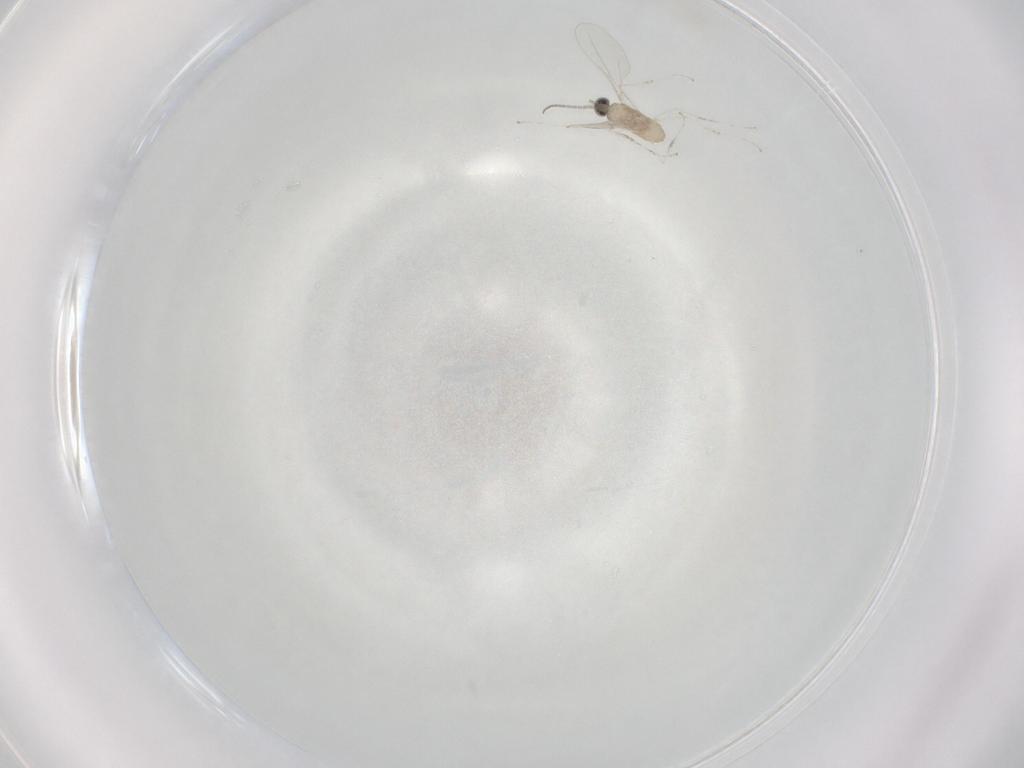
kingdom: Animalia
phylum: Arthropoda
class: Insecta
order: Diptera
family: Cecidomyiidae
